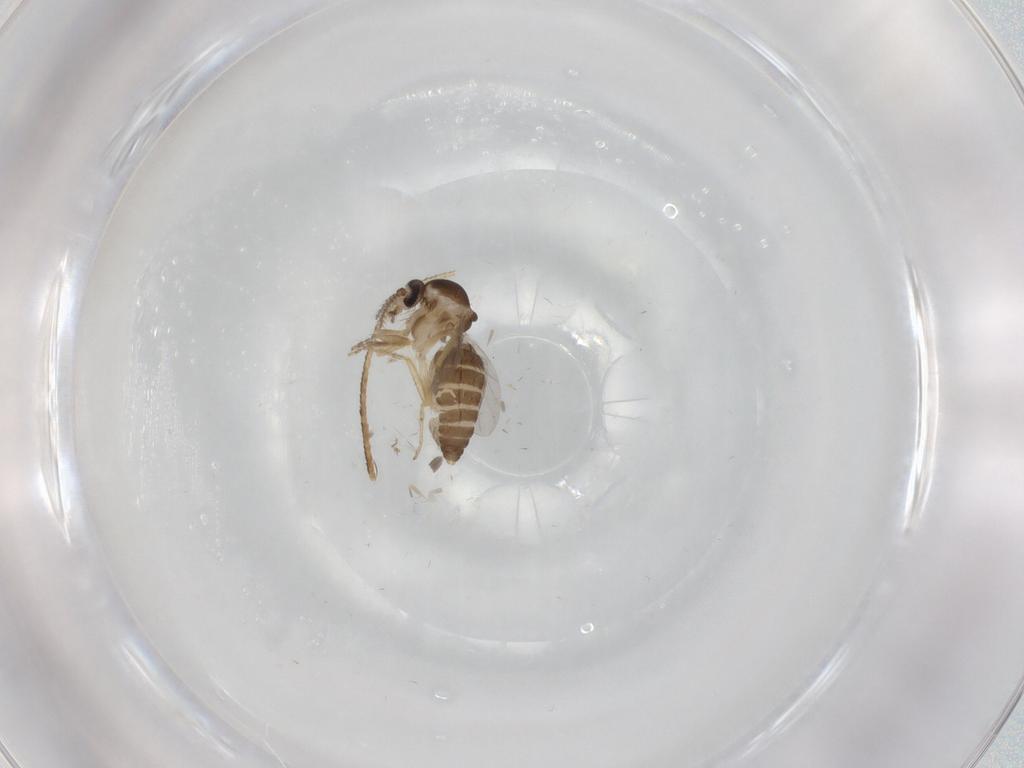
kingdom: Animalia
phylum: Arthropoda
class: Insecta
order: Diptera
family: Ceratopogonidae
